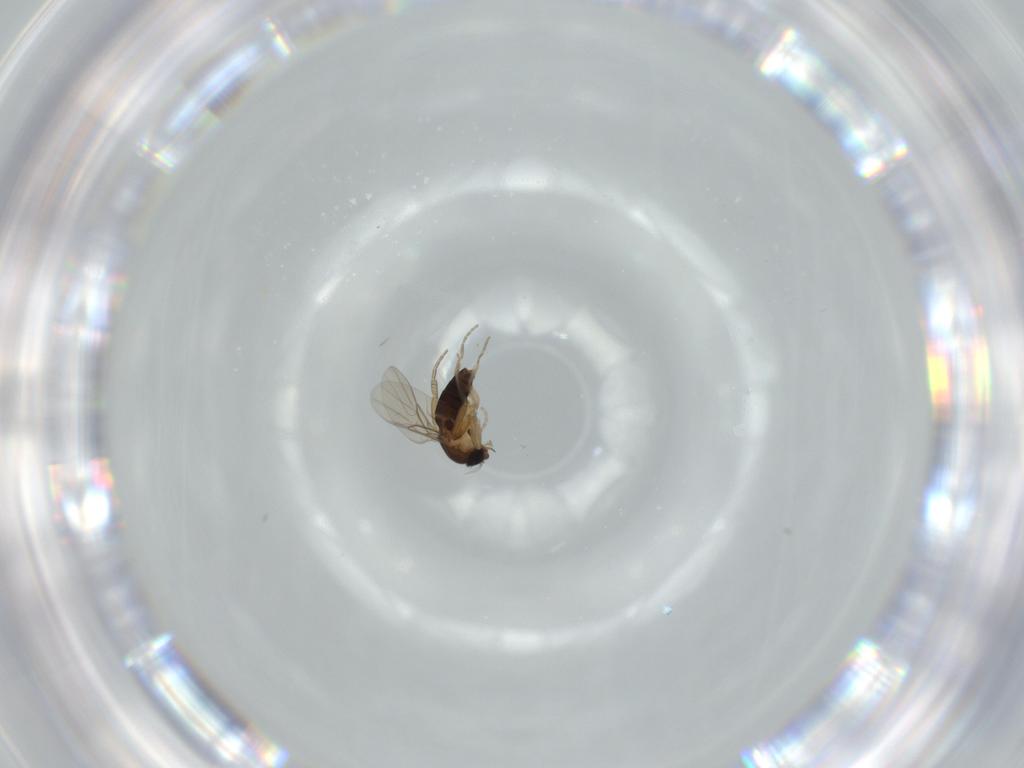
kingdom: Animalia
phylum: Arthropoda
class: Insecta
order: Diptera
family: Phoridae
